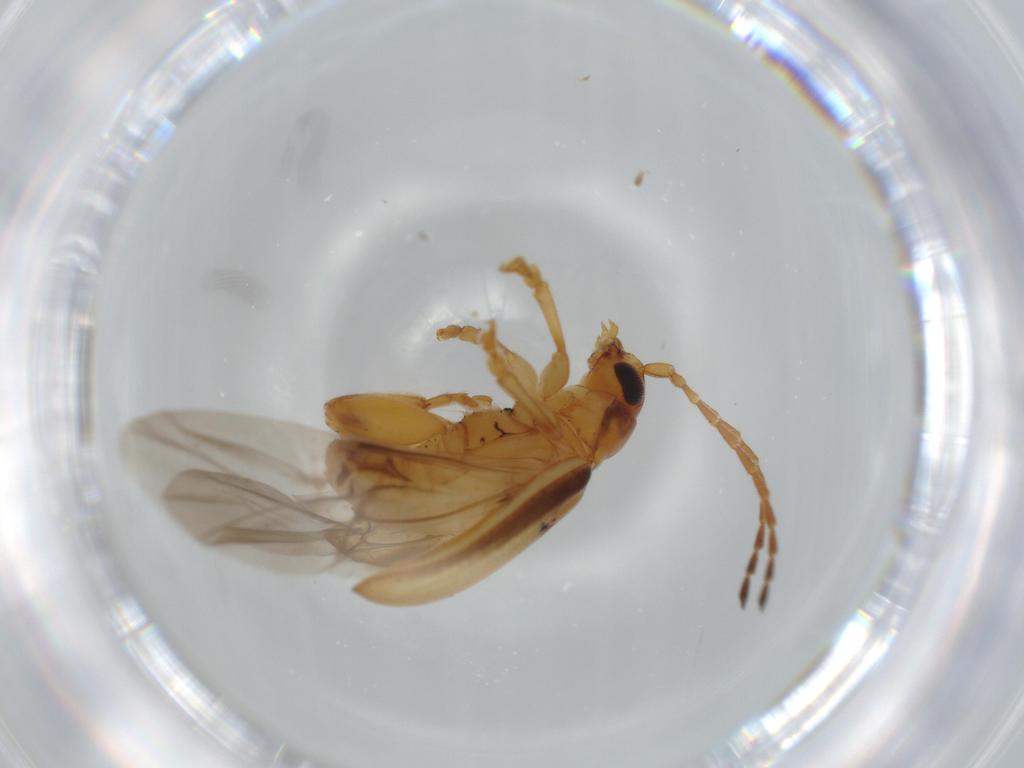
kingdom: Animalia
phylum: Arthropoda
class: Insecta
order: Coleoptera
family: Chrysomelidae
